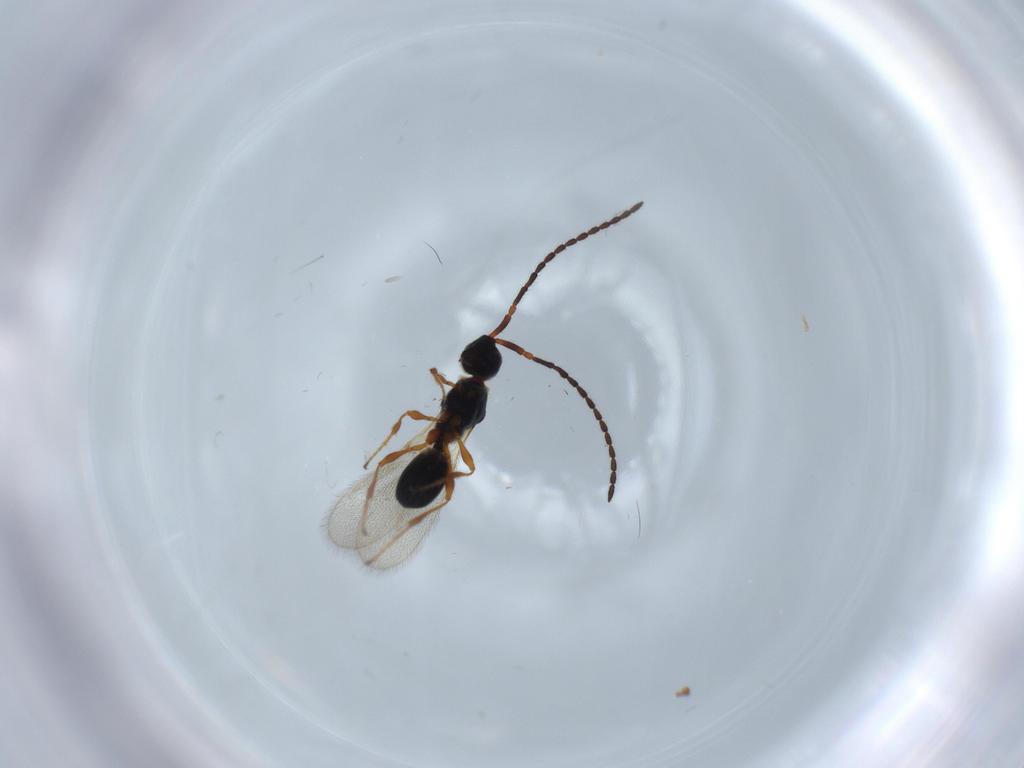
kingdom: Animalia
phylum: Arthropoda
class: Insecta
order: Hymenoptera
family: Diapriidae
